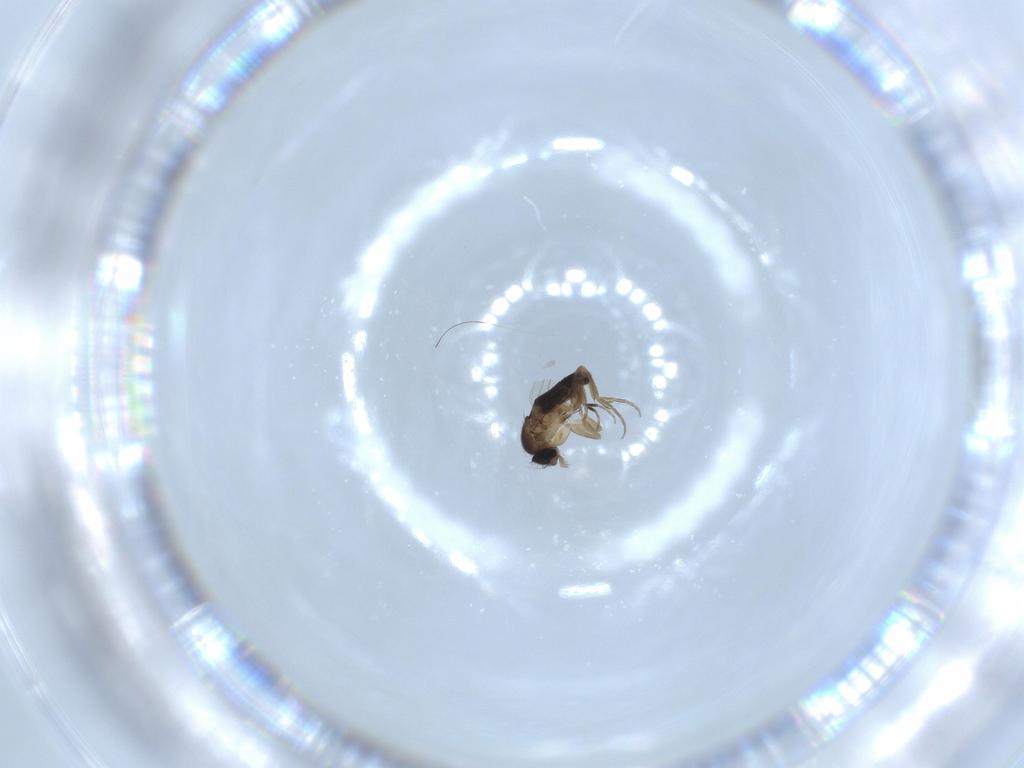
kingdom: Animalia
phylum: Arthropoda
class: Insecta
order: Diptera
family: Phoridae
